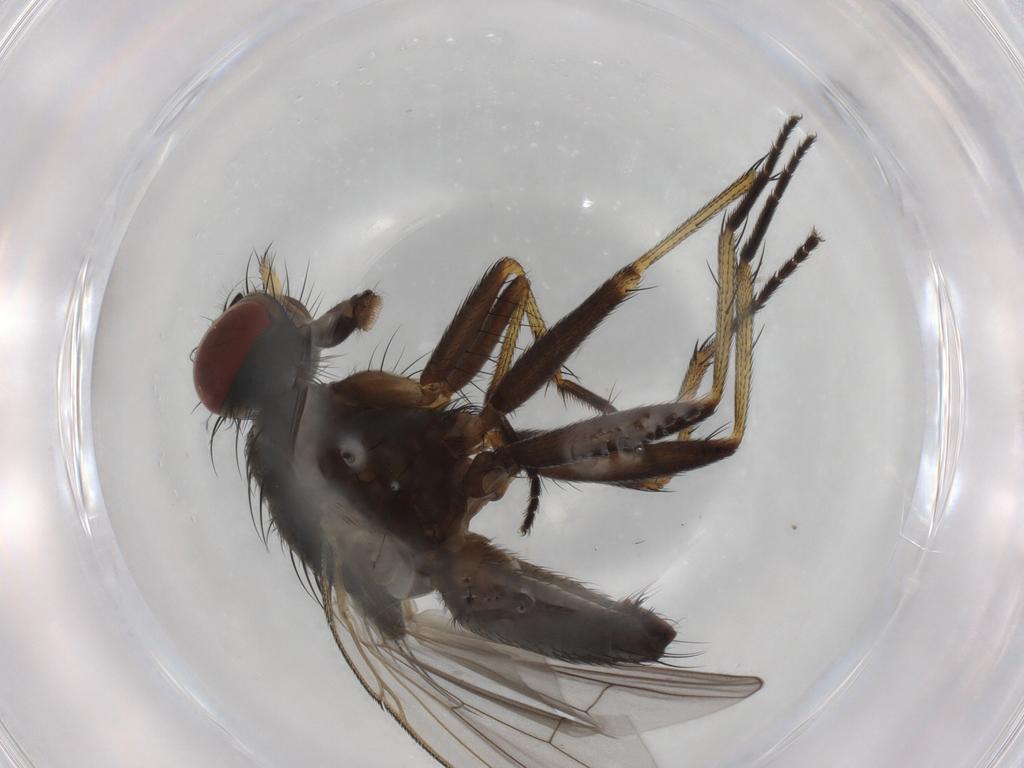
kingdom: Animalia
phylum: Arthropoda
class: Insecta
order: Diptera
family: Muscidae
